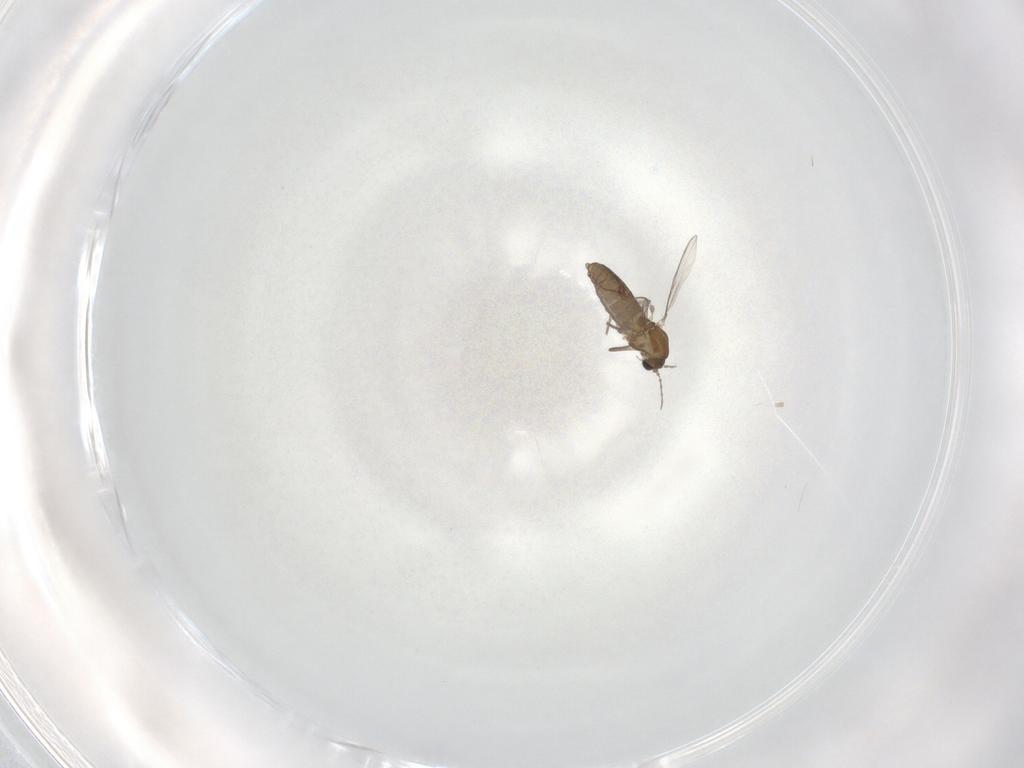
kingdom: Animalia
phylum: Arthropoda
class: Insecta
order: Diptera
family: Chironomidae
